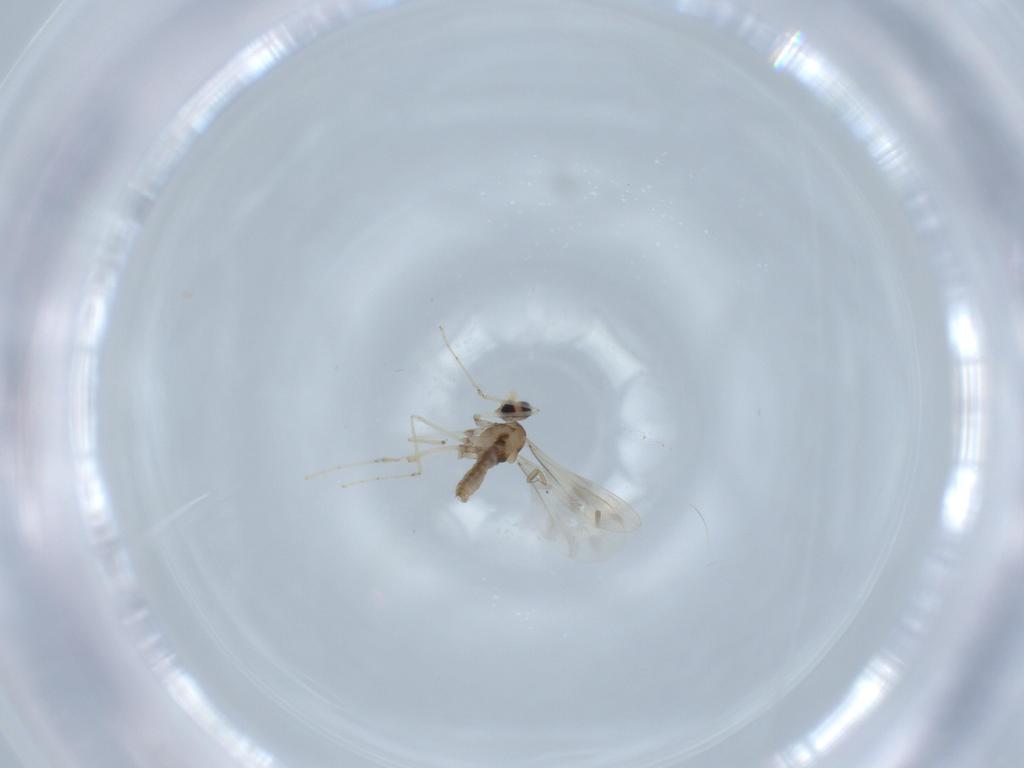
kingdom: Animalia
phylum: Arthropoda
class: Insecta
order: Diptera
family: Cecidomyiidae
